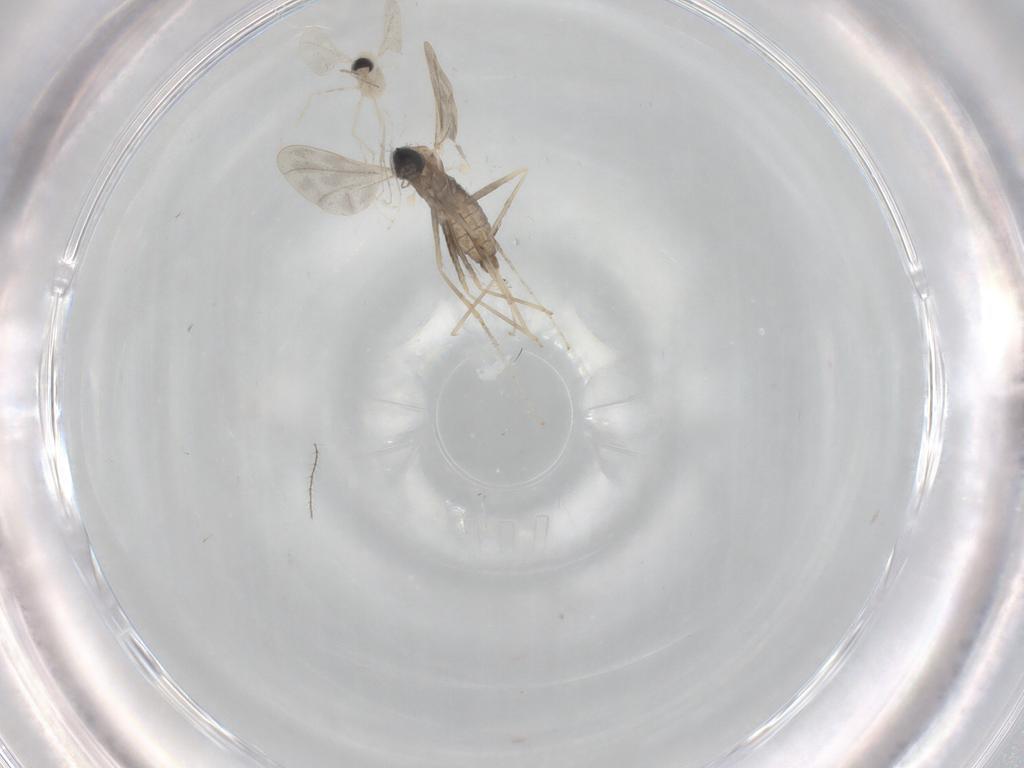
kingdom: Animalia
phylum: Arthropoda
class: Insecta
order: Diptera
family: Cecidomyiidae
